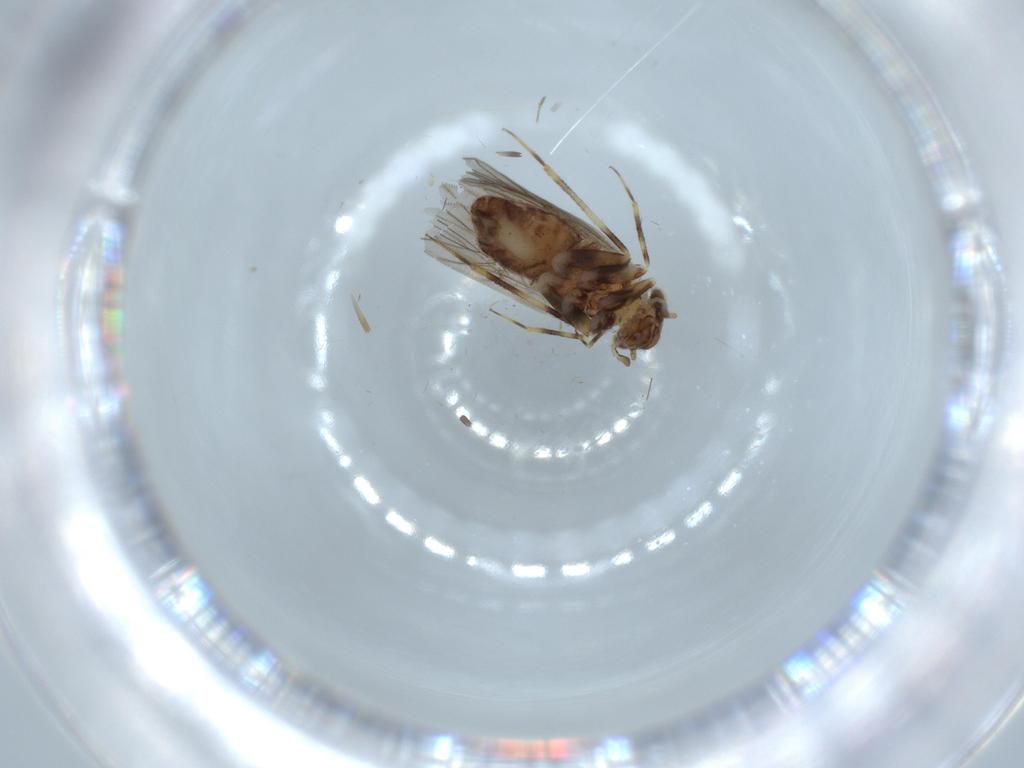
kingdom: Animalia
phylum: Arthropoda
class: Insecta
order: Psocodea
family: Lepidopsocidae
